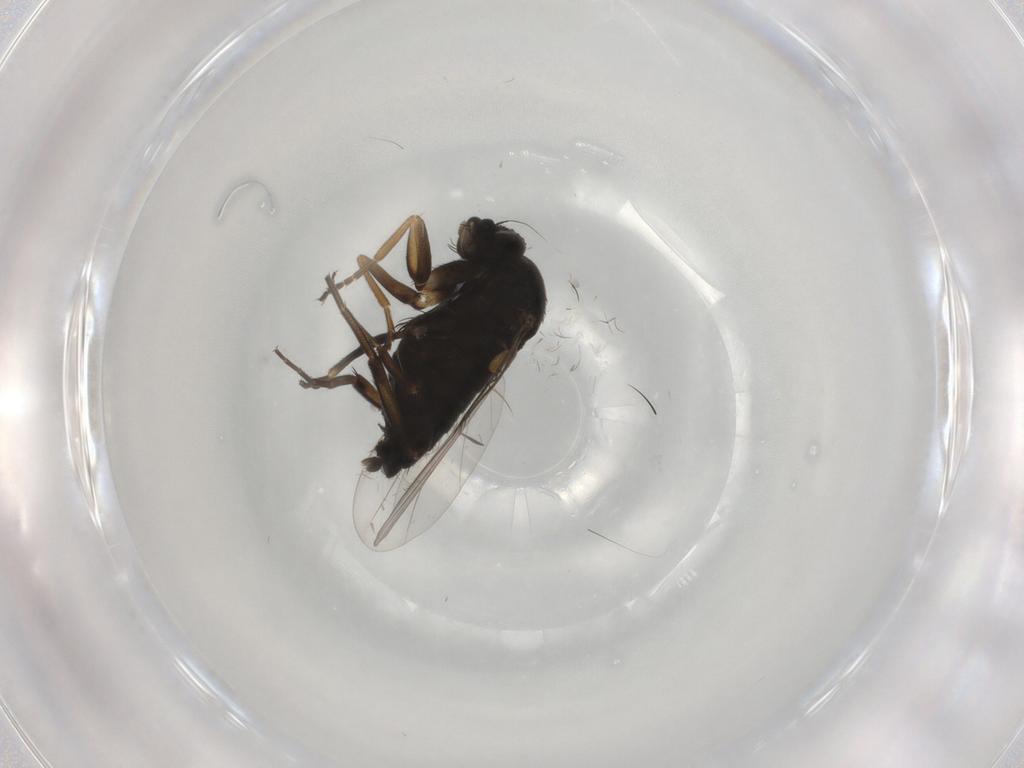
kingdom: Animalia
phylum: Arthropoda
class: Insecta
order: Diptera
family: Phoridae
